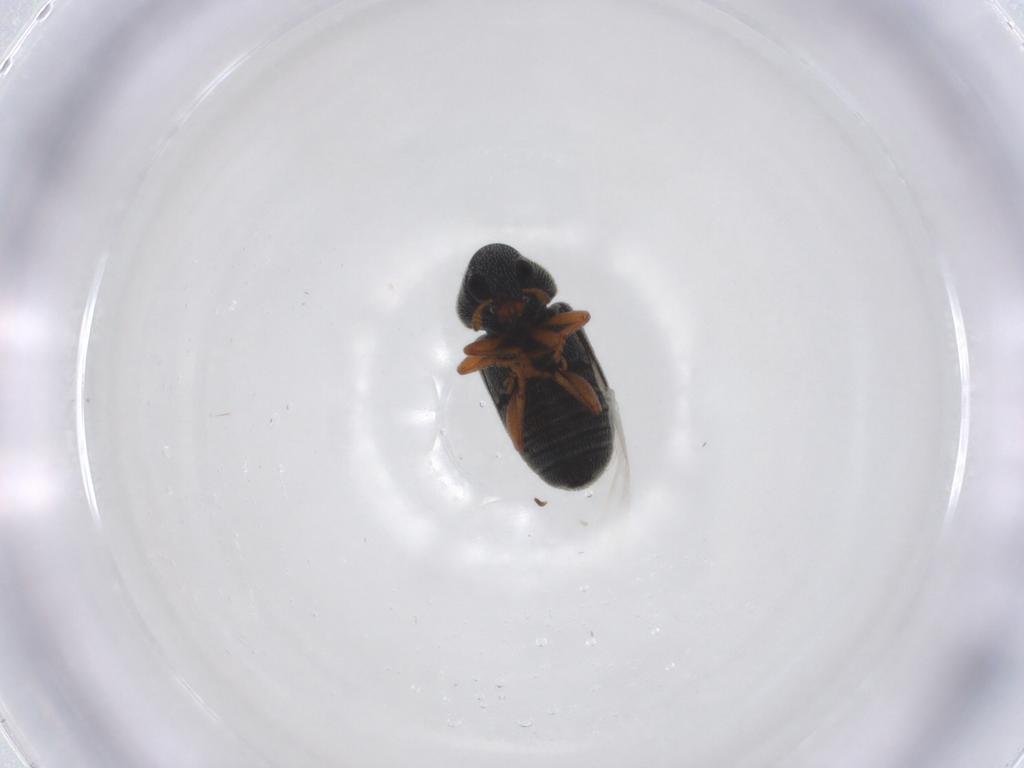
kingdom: Animalia
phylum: Arthropoda
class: Insecta
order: Coleoptera
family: Anthribidae
